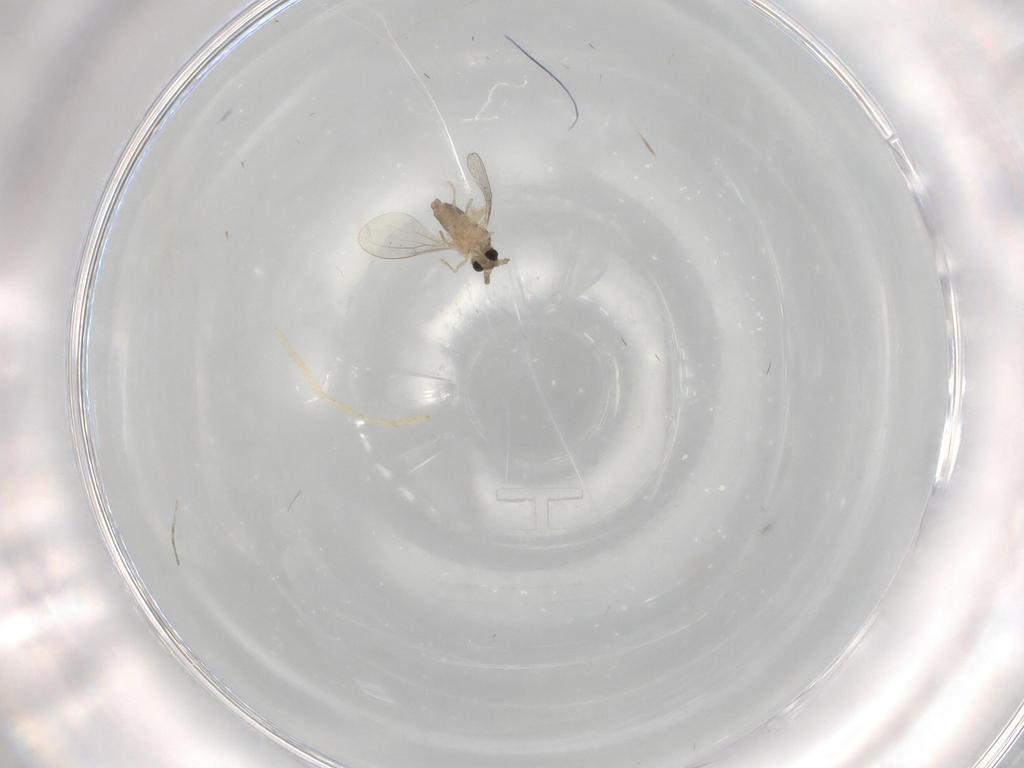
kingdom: Animalia
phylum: Arthropoda
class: Insecta
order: Diptera
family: Cecidomyiidae
